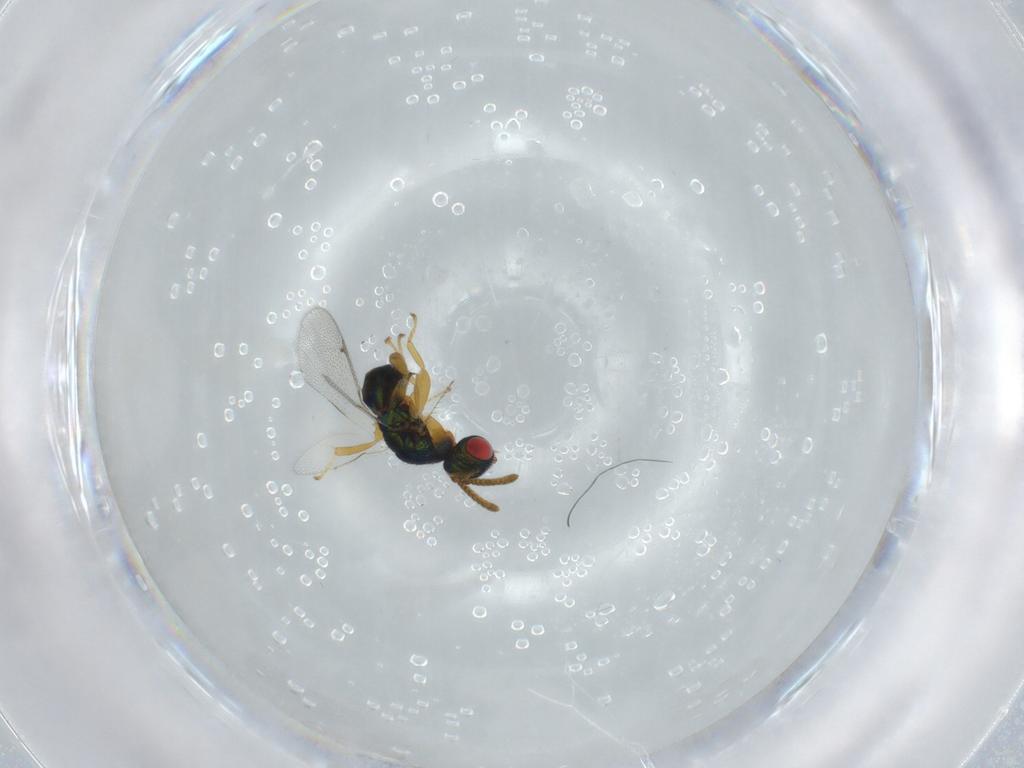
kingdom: Animalia
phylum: Arthropoda
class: Insecta
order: Hymenoptera
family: Torymidae
